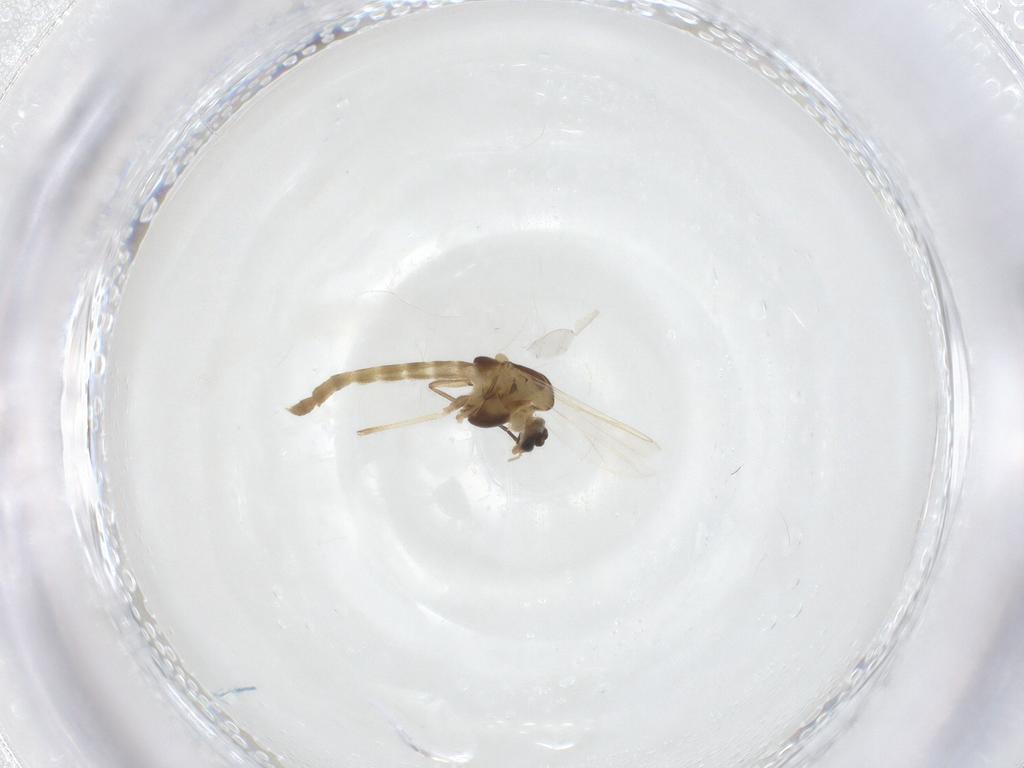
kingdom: Animalia
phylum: Arthropoda
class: Insecta
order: Diptera
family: Chironomidae
